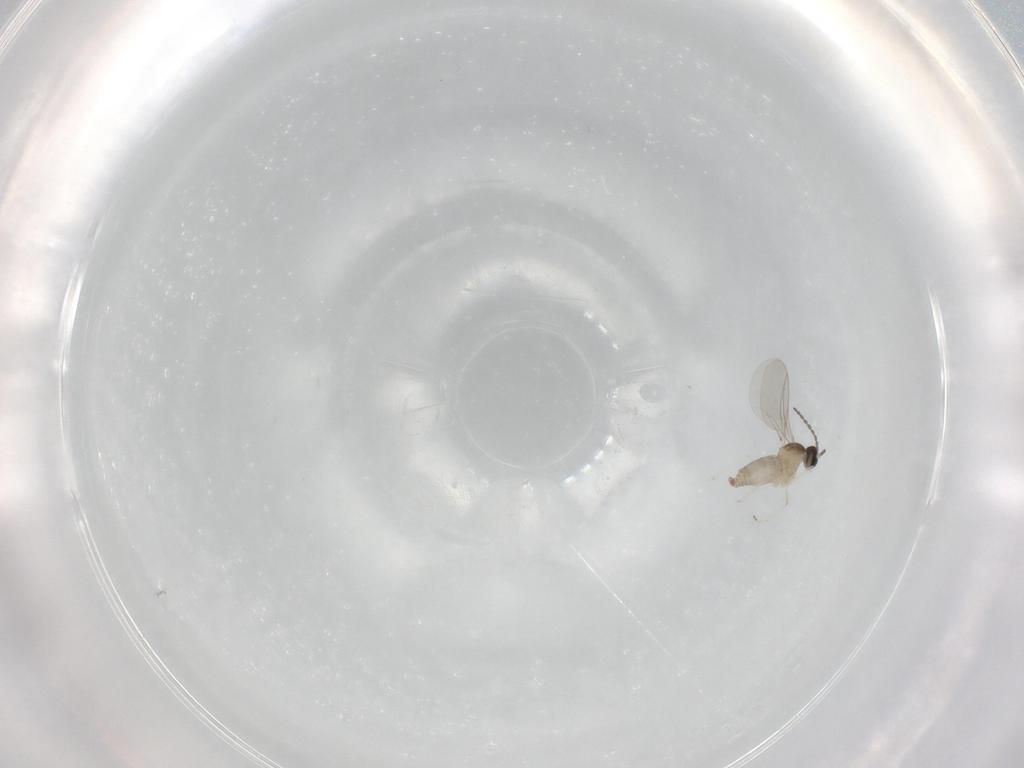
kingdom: Animalia
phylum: Arthropoda
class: Insecta
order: Diptera
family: Cecidomyiidae
